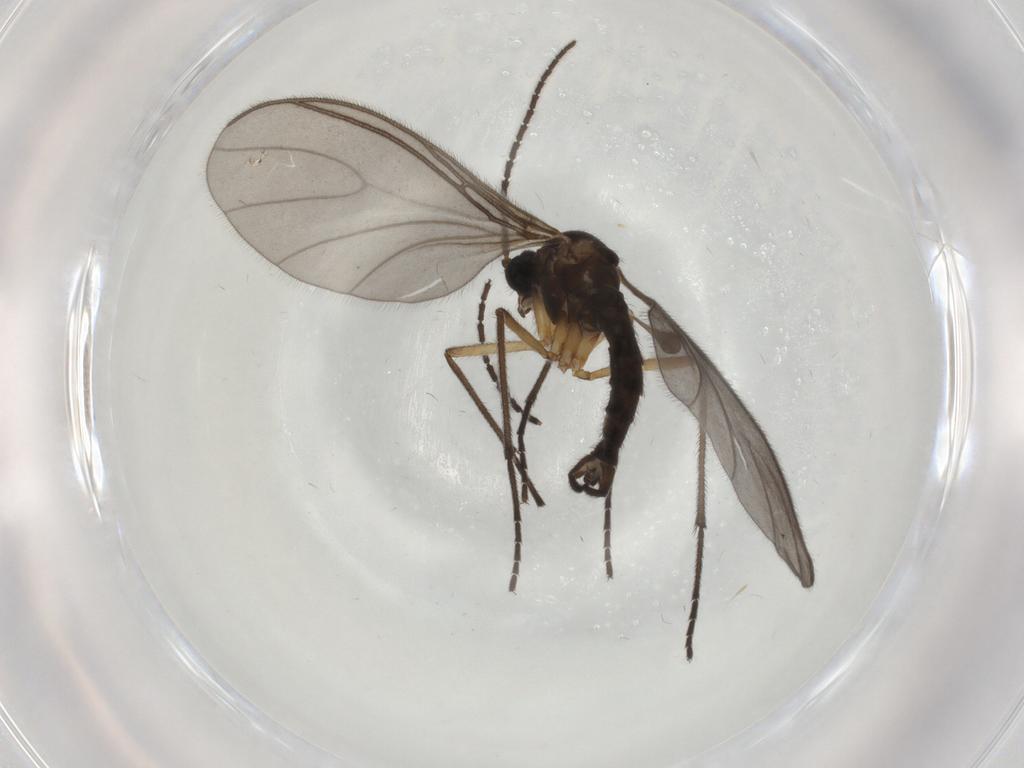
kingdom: Animalia
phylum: Arthropoda
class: Insecta
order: Diptera
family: Sciaridae
